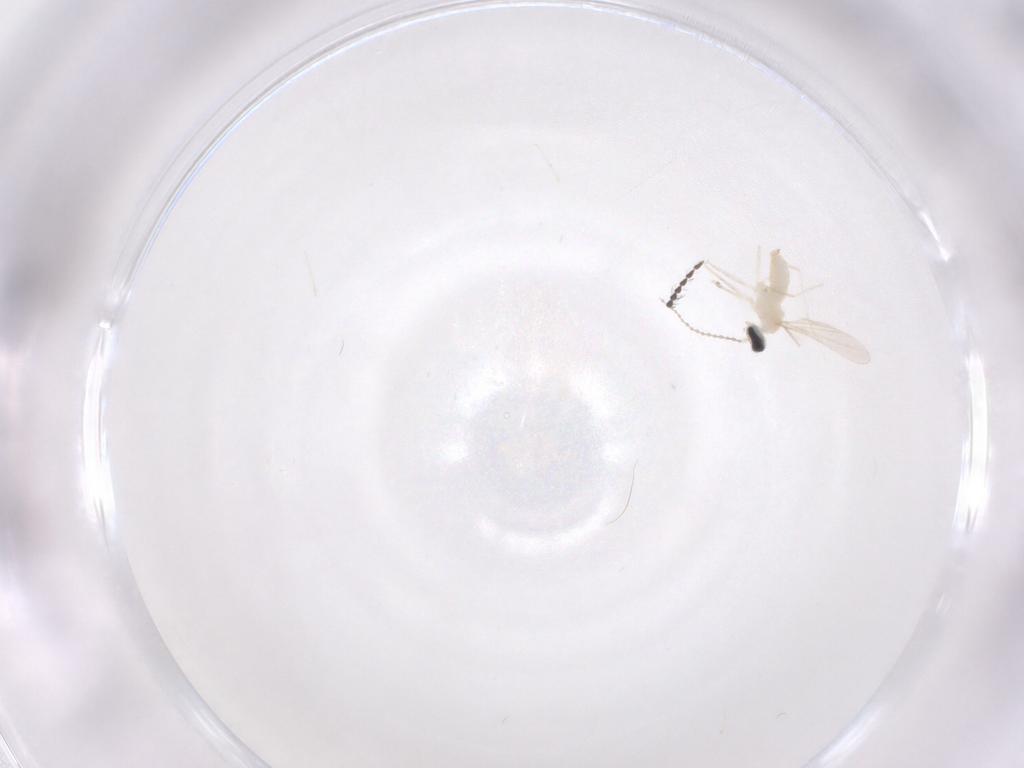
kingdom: Animalia
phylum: Arthropoda
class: Insecta
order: Diptera
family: Cecidomyiidae
